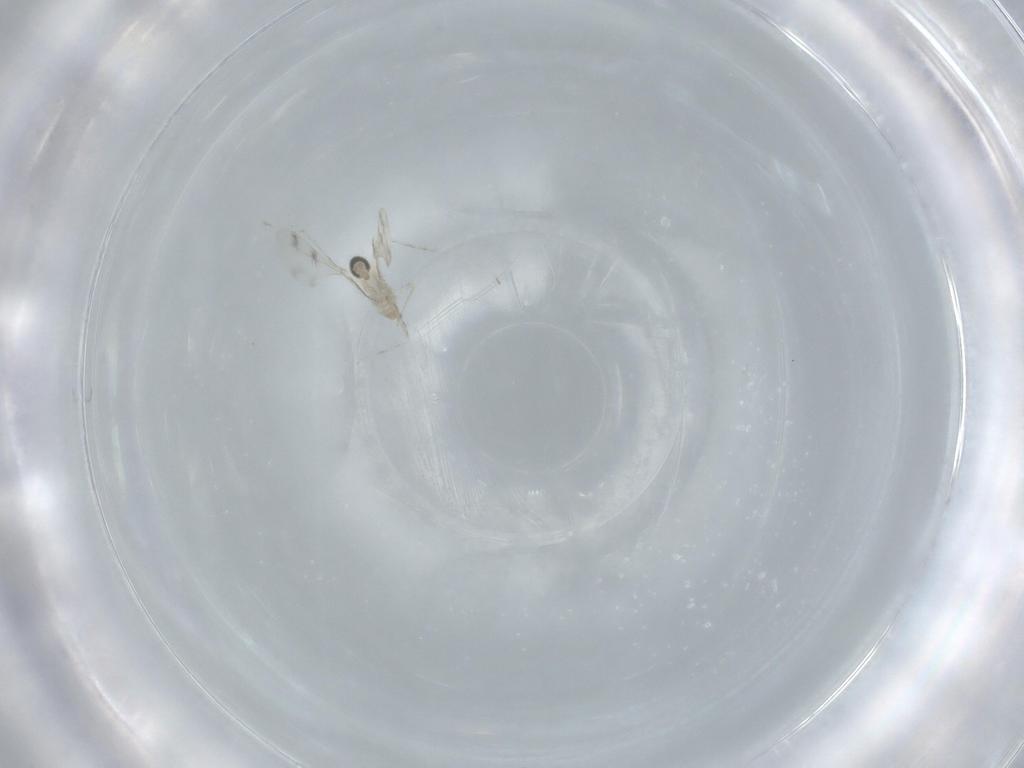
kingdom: Animalia
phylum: Arthropoda
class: Insecta
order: Diptera
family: Cecidomyiidae
